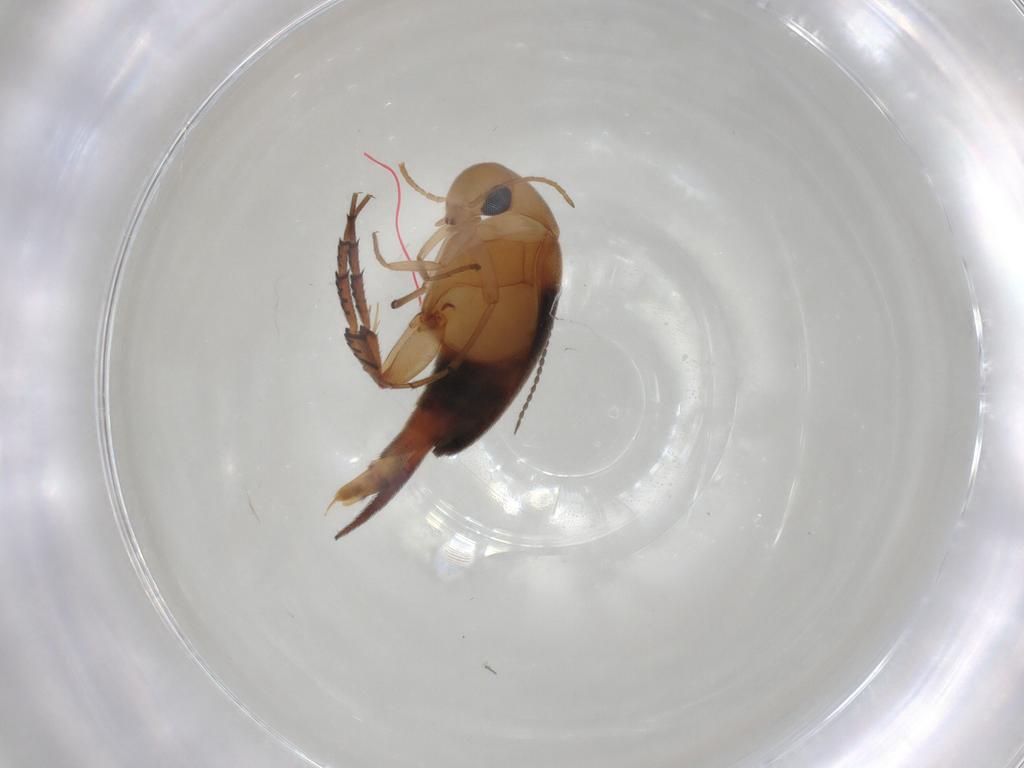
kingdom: Animalia
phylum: Arthropoda
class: Insecta
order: Coleoptera
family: Mordellidae
